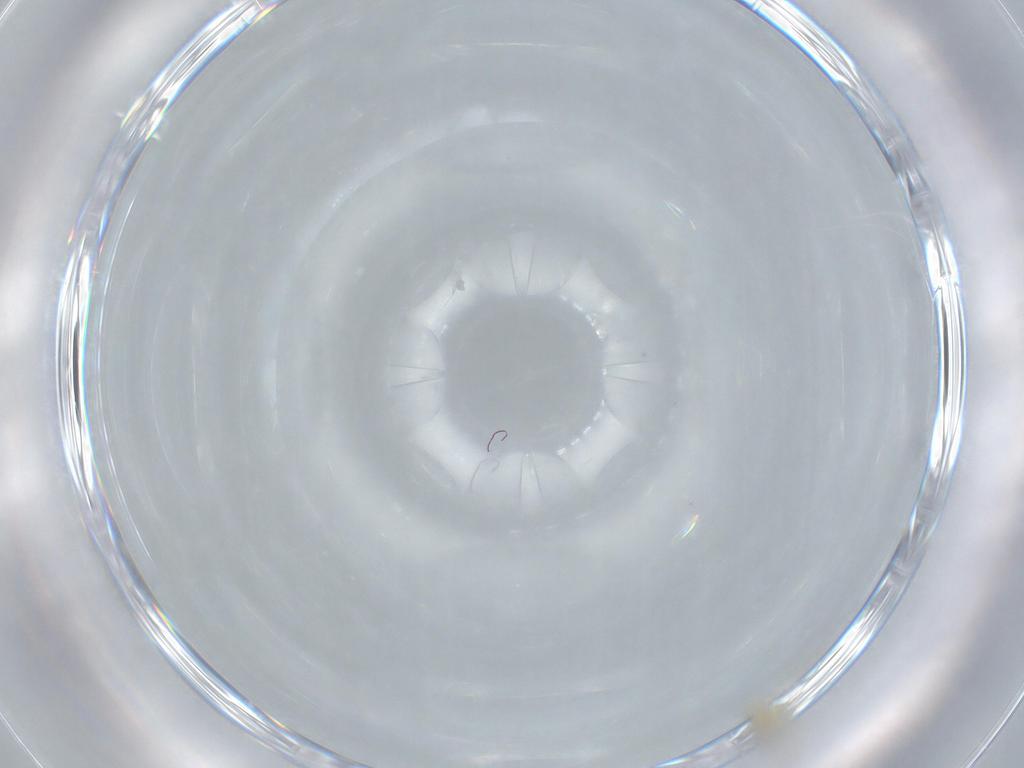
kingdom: Animalia
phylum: Arthropoda
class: Insecta
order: Diptera
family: Cecidomyiidae
